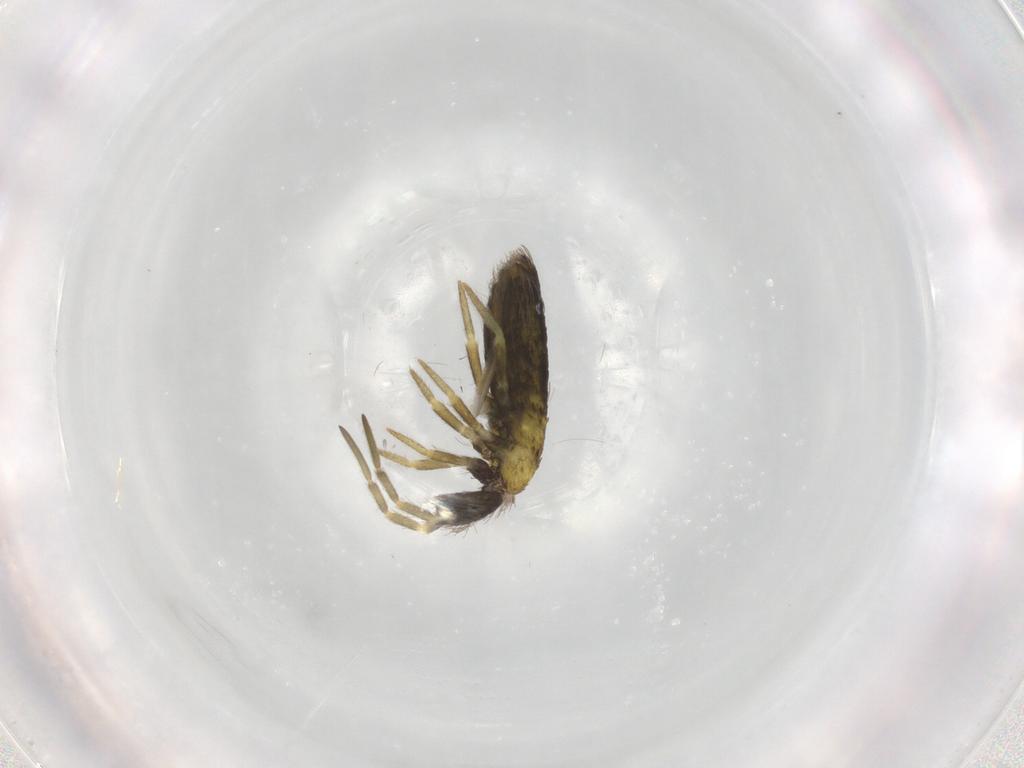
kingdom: Animalia
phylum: Arthropoda
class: Collembola
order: Entomobryomorpha
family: Entomobryidae
